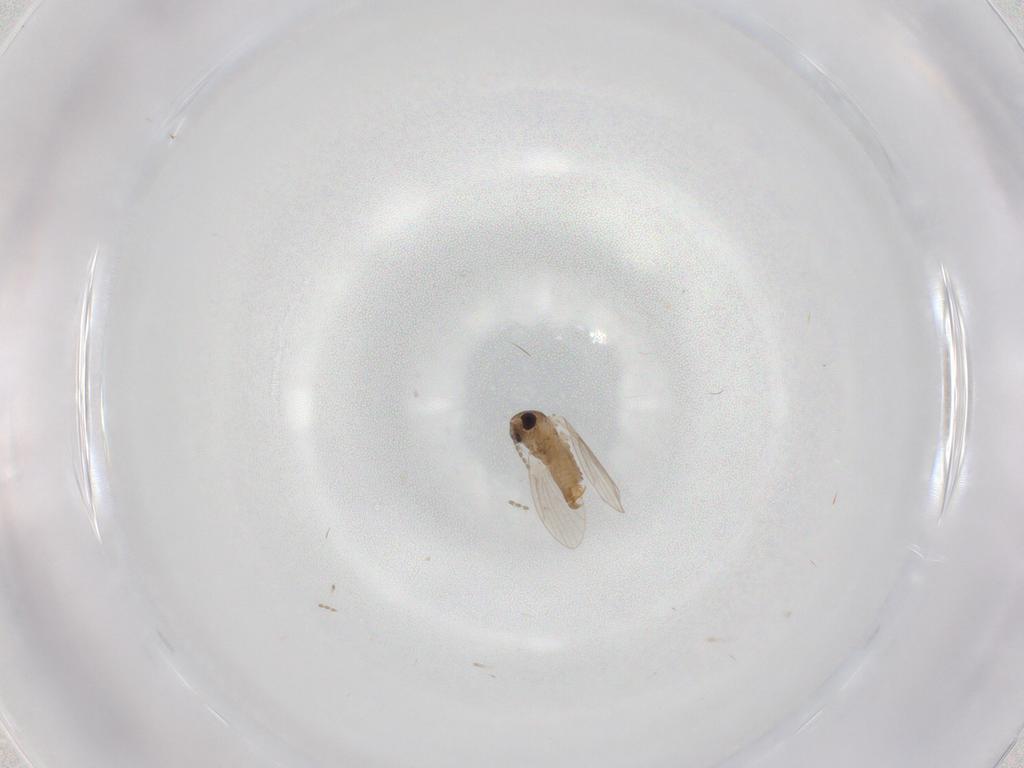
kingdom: Animalia
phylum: Arthropoda
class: Insecta
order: Diptera
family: Psychodidae
